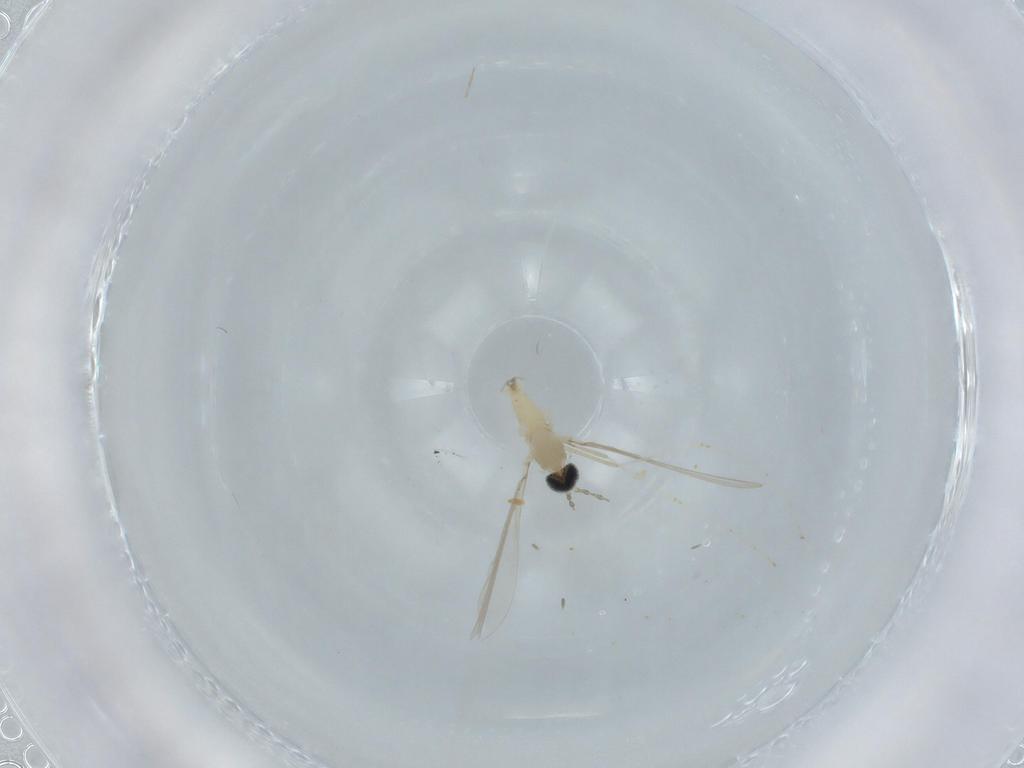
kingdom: Animalia
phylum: Arthropoda
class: Insecta
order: Diptera
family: Cecidomyiidae
